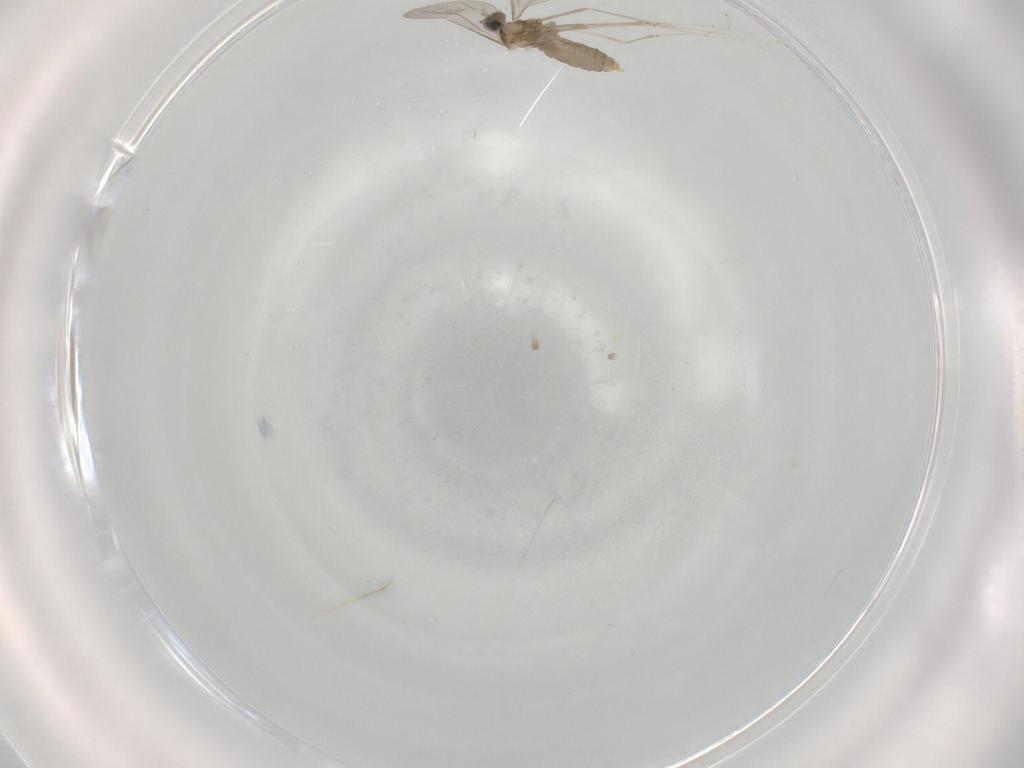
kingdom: Animalia
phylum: Arthropoda
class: Insecta
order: Diptera
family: Cecidomyiidae
